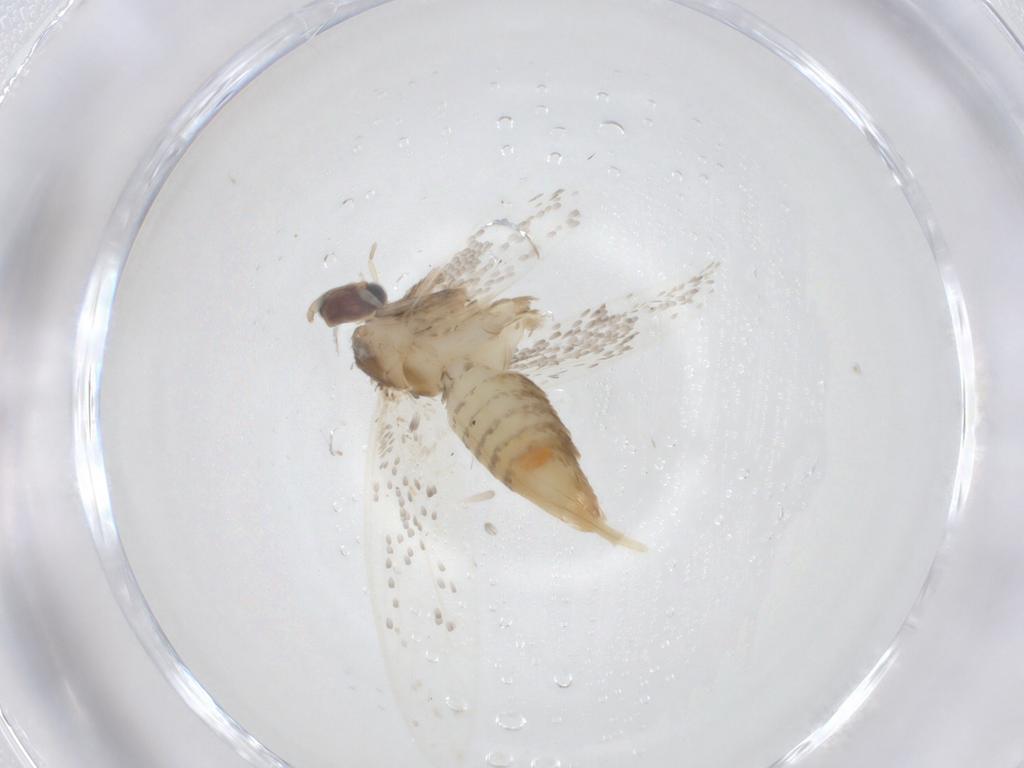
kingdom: Animalia
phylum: Arthropoda
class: Insecta
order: Lepidoptera
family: Tineidae
